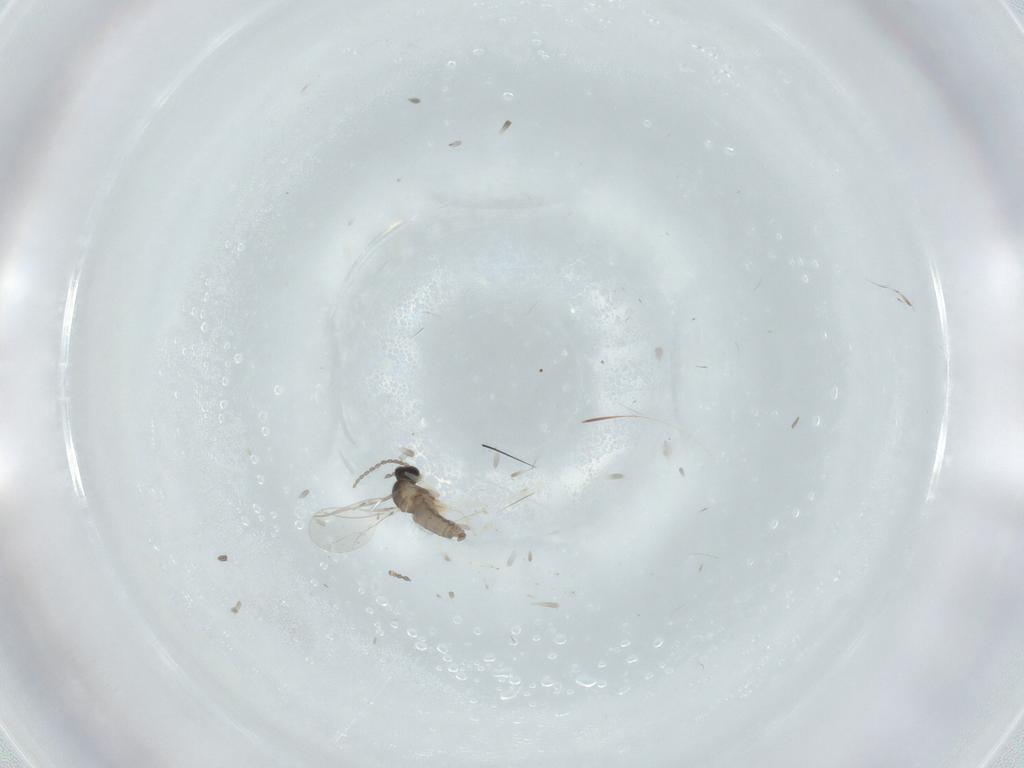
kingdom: Animalia
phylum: Arthropoda
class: Insecta
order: Diptera
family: Cecidomyiidae
